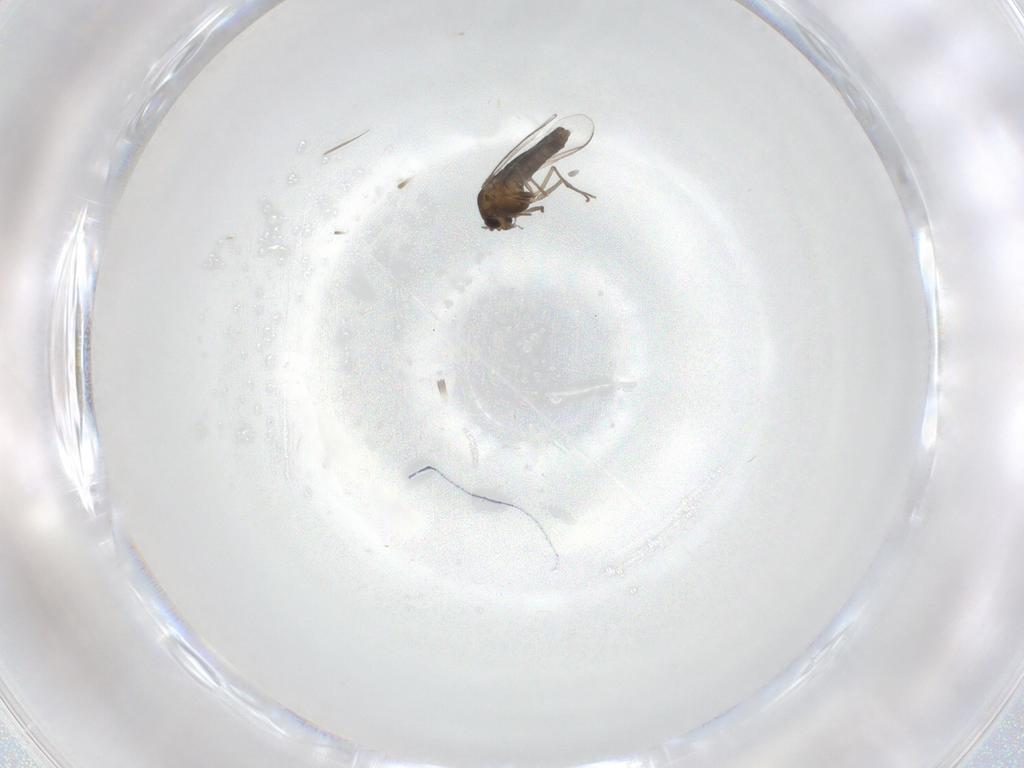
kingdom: Animalia
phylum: Arthropoda
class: Insecta
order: Diptera
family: Chironomidae
